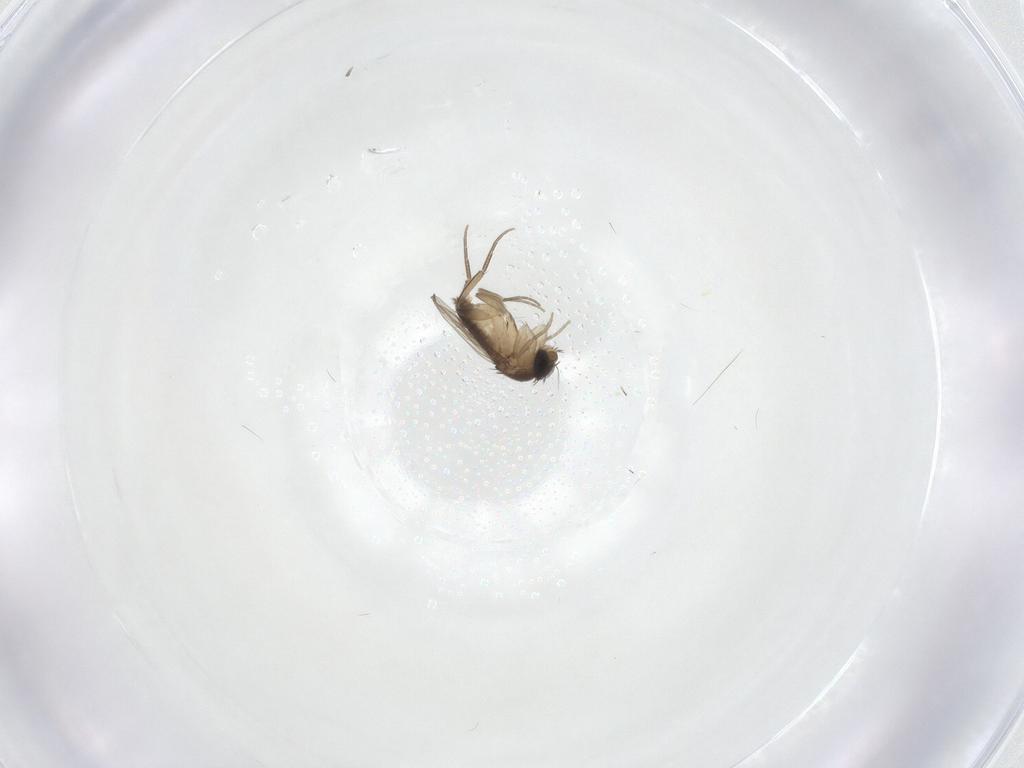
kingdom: Animalia
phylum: Arthropoda
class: Insecta
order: Diptera
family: Phoridae
